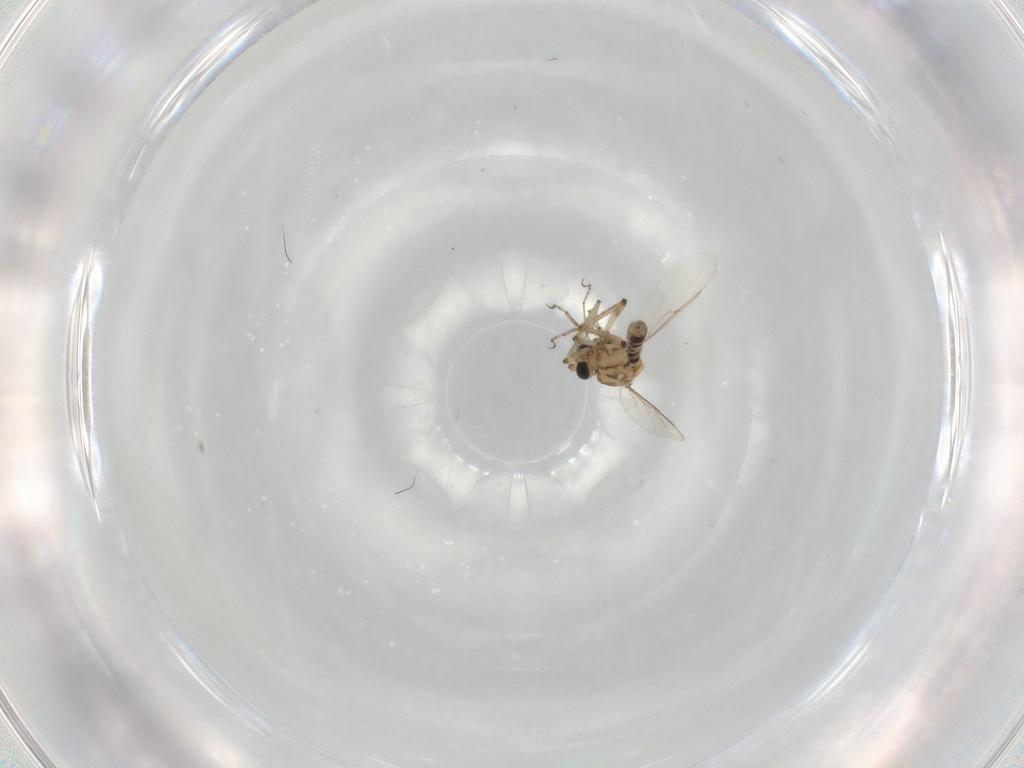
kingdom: Animalia
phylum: Arthropoda
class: Insecta
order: Diptera
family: Ceratopogonidae
